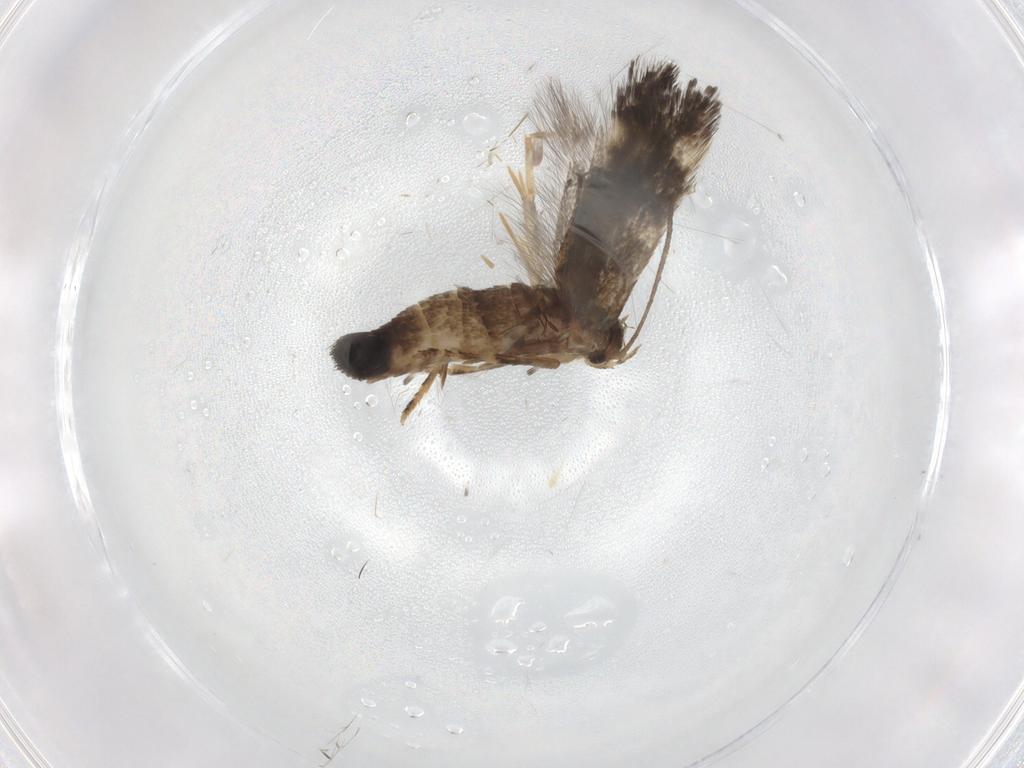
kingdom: Animalia
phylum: Arthropoda
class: Insecta
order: Lepidoptera
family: Elachistidae
